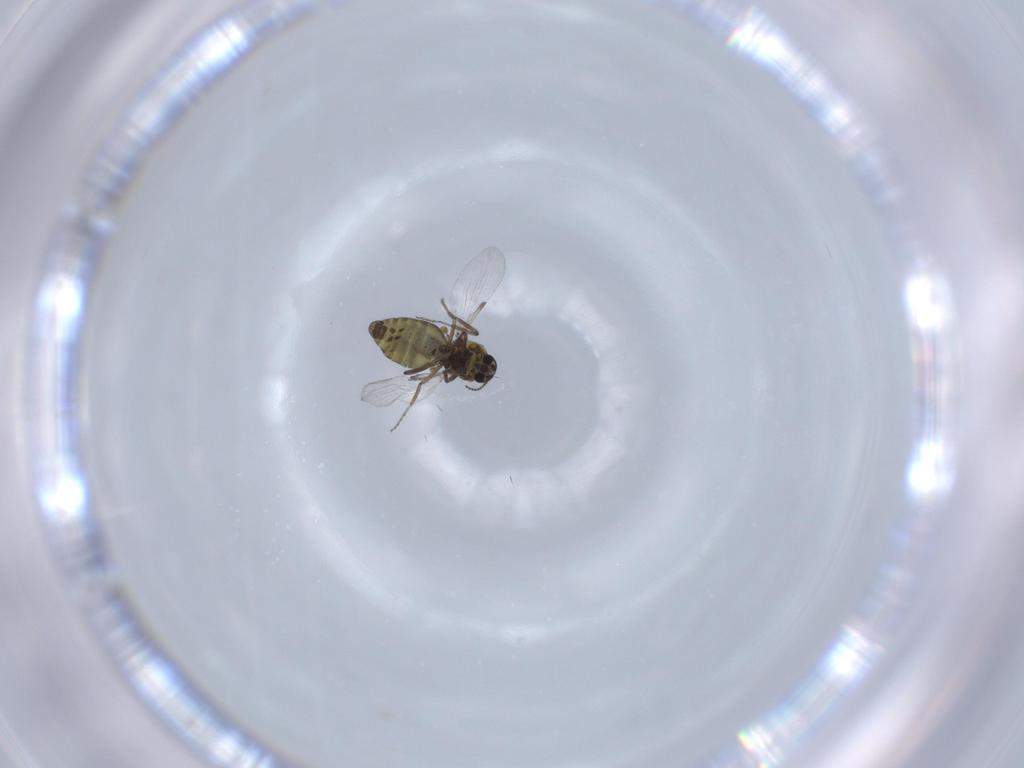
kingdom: Animalia
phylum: Arthropoda
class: Insecta
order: Diptera
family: Ceratopogonidae
